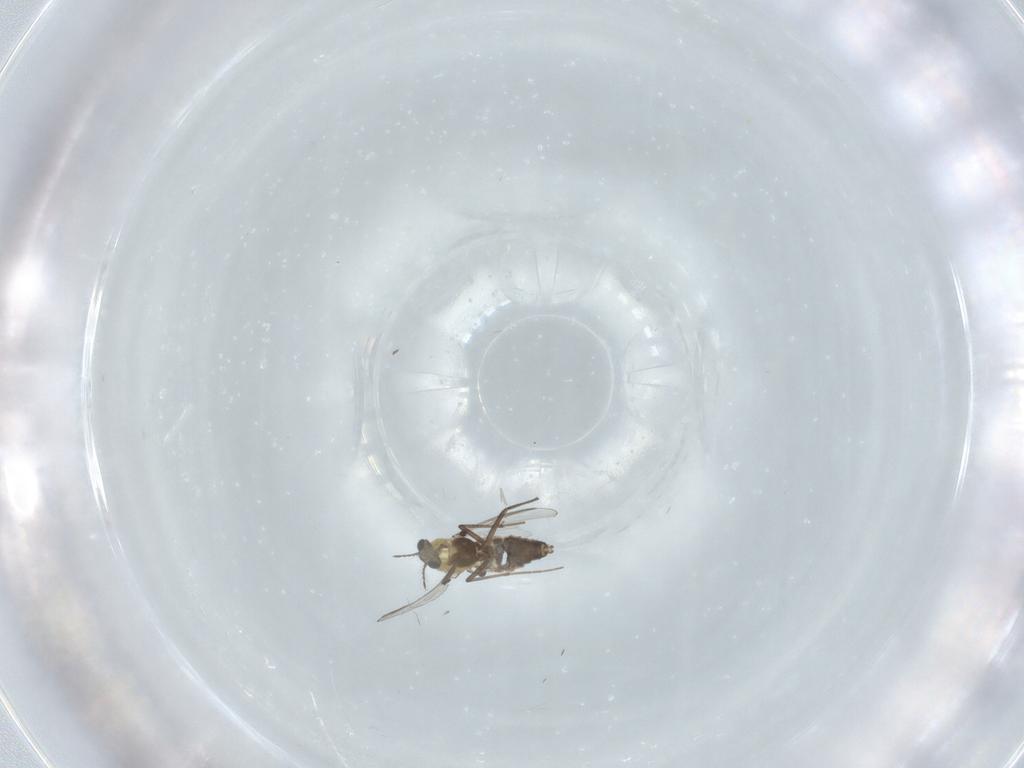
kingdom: Animalia
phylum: Arthropoda
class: Insecta
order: Diptera
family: Chironomidae
